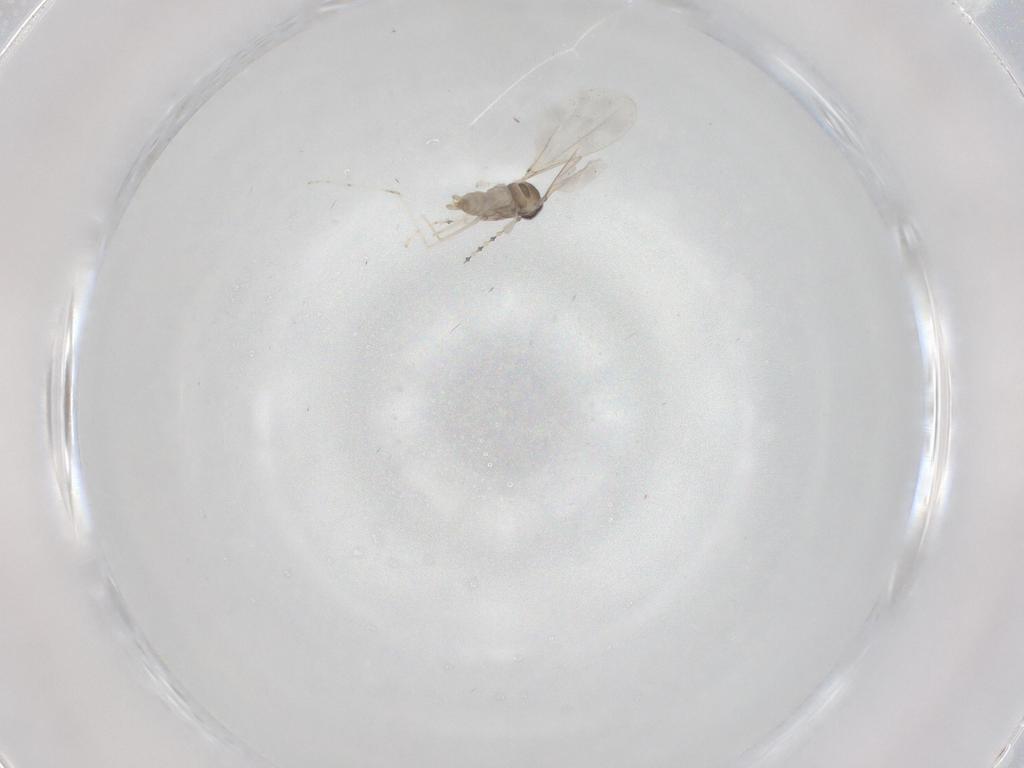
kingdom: Animalia
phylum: Arthropoda
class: Insecta
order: Diptera
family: Cecidomyiidae
